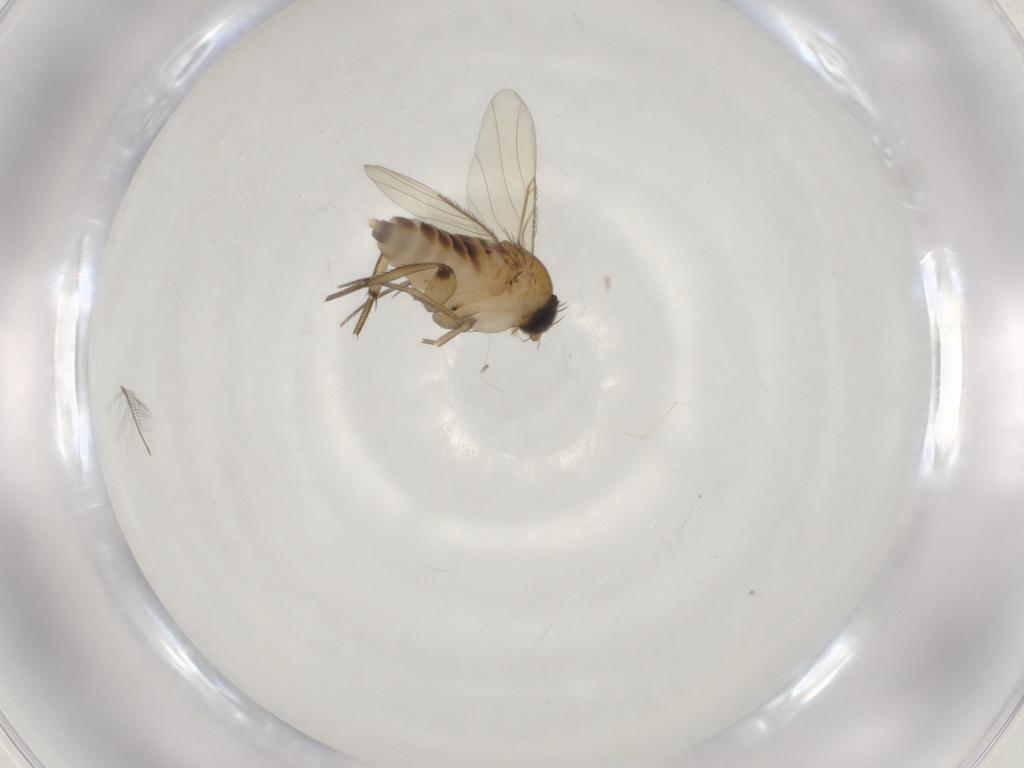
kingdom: Animalia
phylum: Arthropoda
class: Insecta
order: Diptera
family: Phoridae
